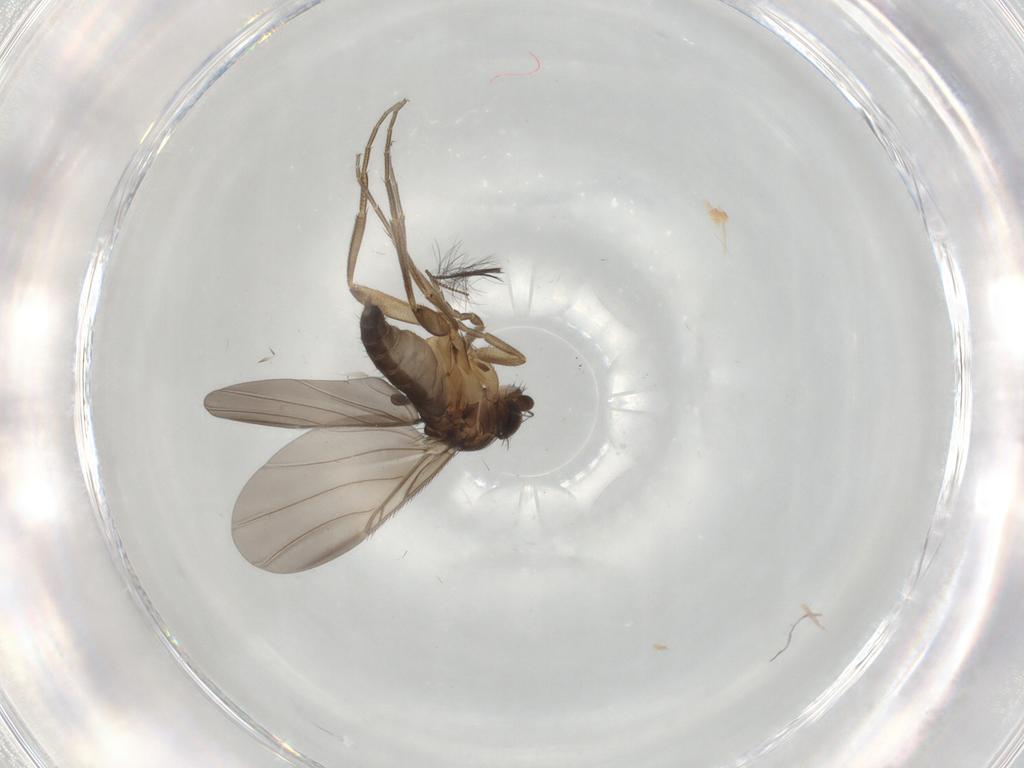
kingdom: Animalia
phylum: Arthropoda
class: Insecta
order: Diptera
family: Phoridae
